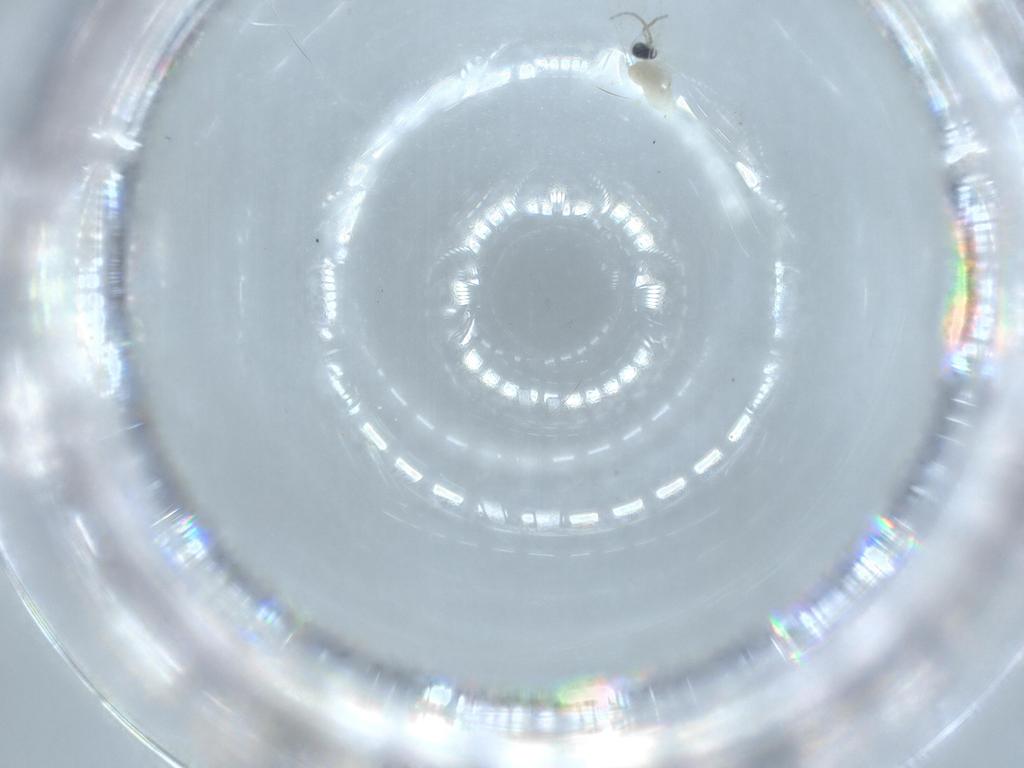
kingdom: Animalia
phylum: Arthropoda
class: Insecta
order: Diptera
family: Cecidomyiidae
